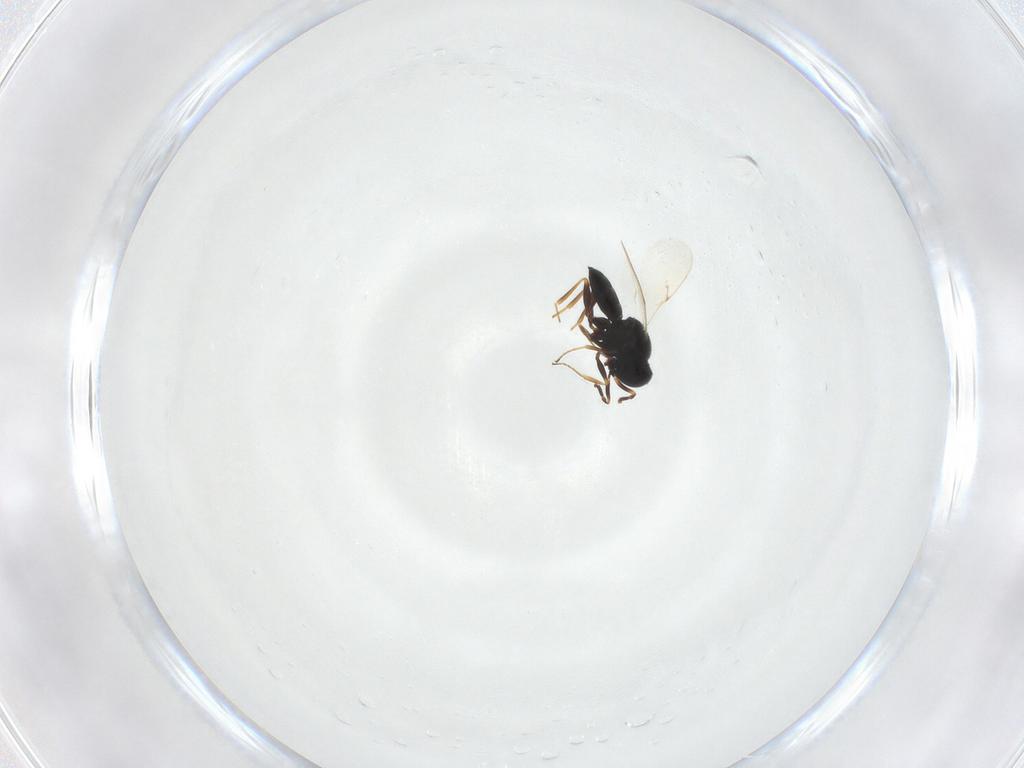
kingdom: Animalia
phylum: Arthropoda
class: Insecta
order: Hymenoptera
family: Scelionidae
